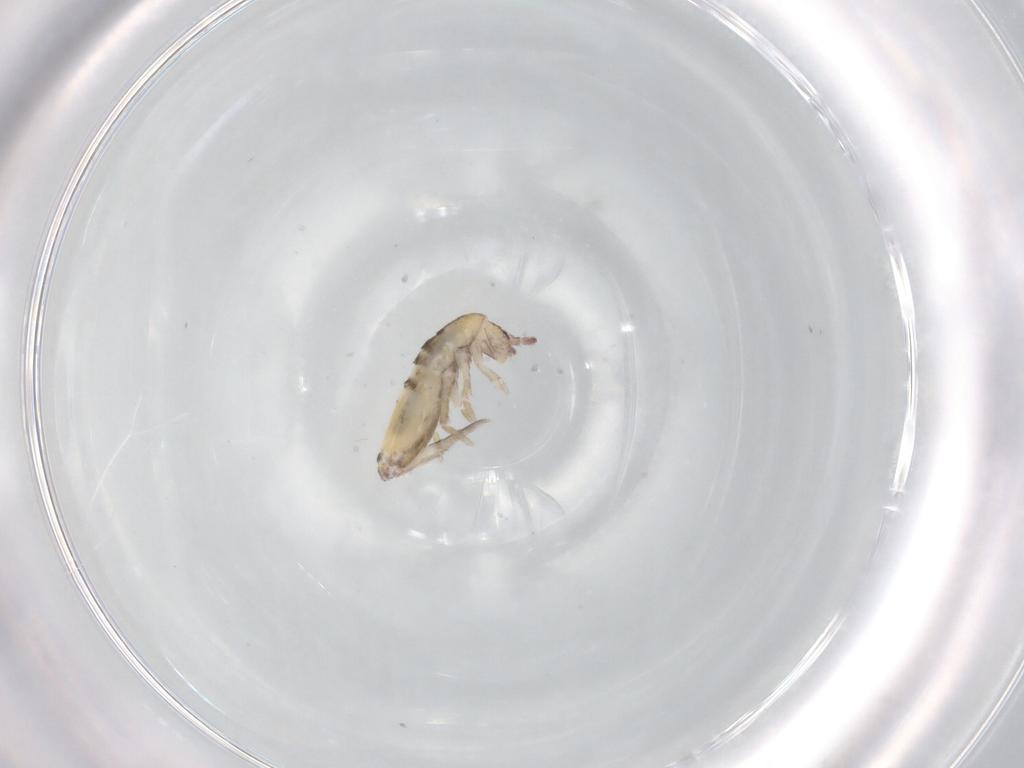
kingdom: Animalia
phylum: Arthropoda
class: Collembola
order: Entomobryomorpha
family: Entomobryidae
